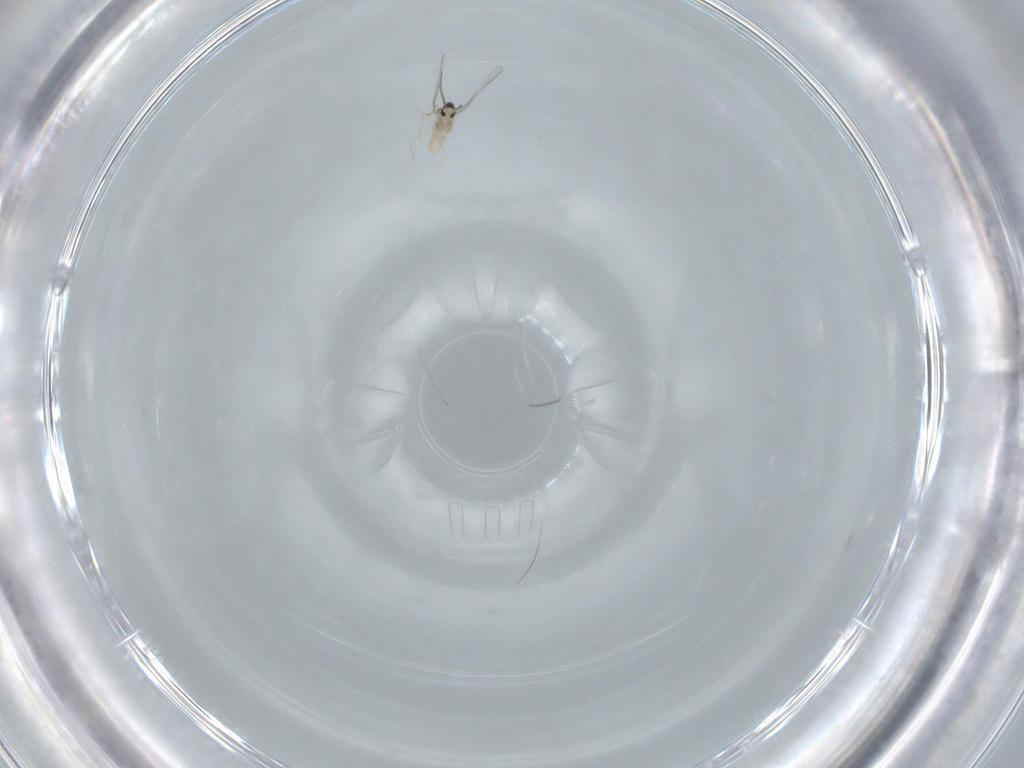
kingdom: Animalia
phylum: Arthropoda
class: Insecta
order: Diptera
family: Cecidomyiidae
